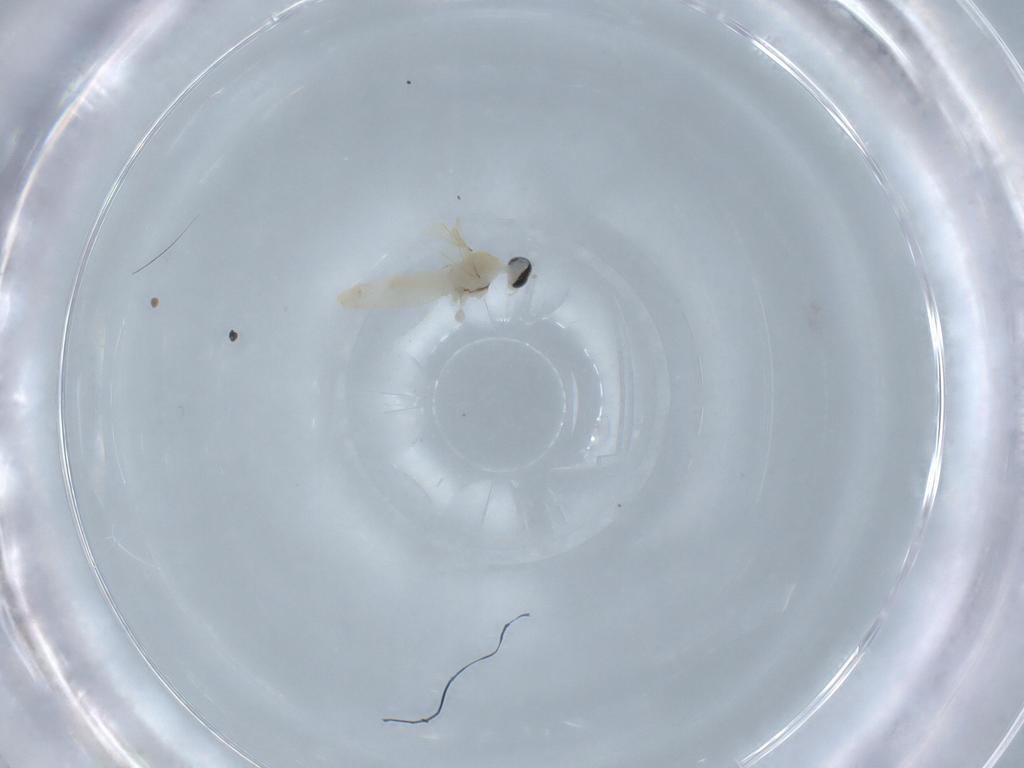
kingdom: Animalia
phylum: Arthropoda
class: Insecta
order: Diptera
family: Cecidomyiidae
